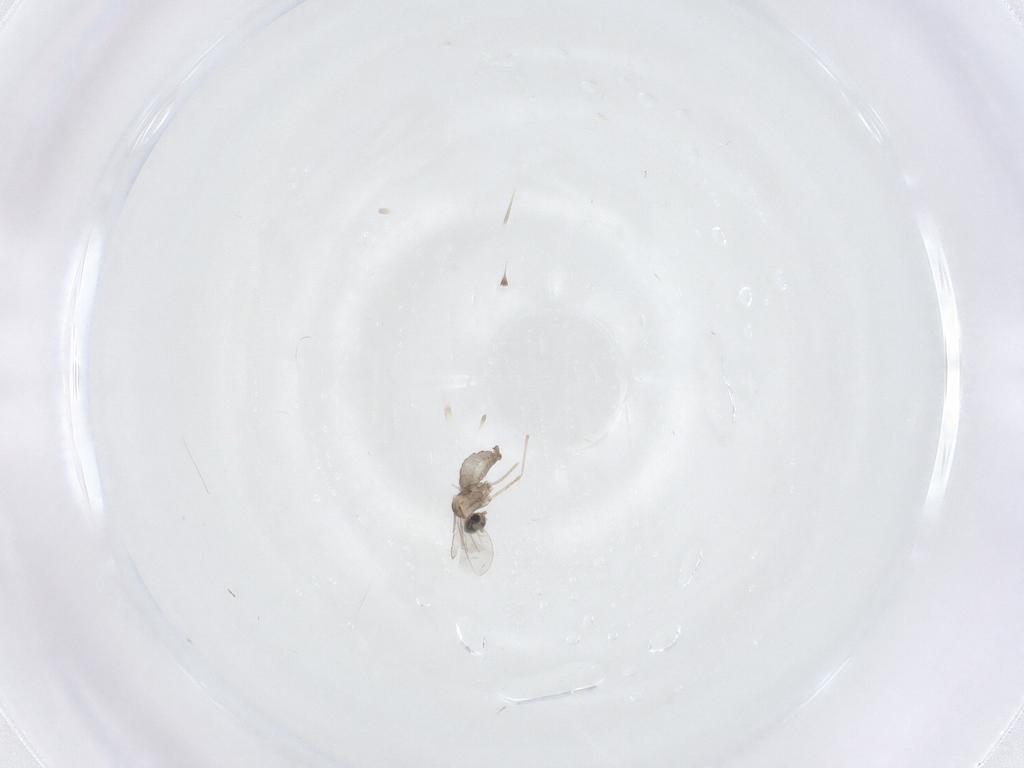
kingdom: Animalia
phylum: Arthropoda
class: Insecta
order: Diptera
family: Cecidomyiidae
